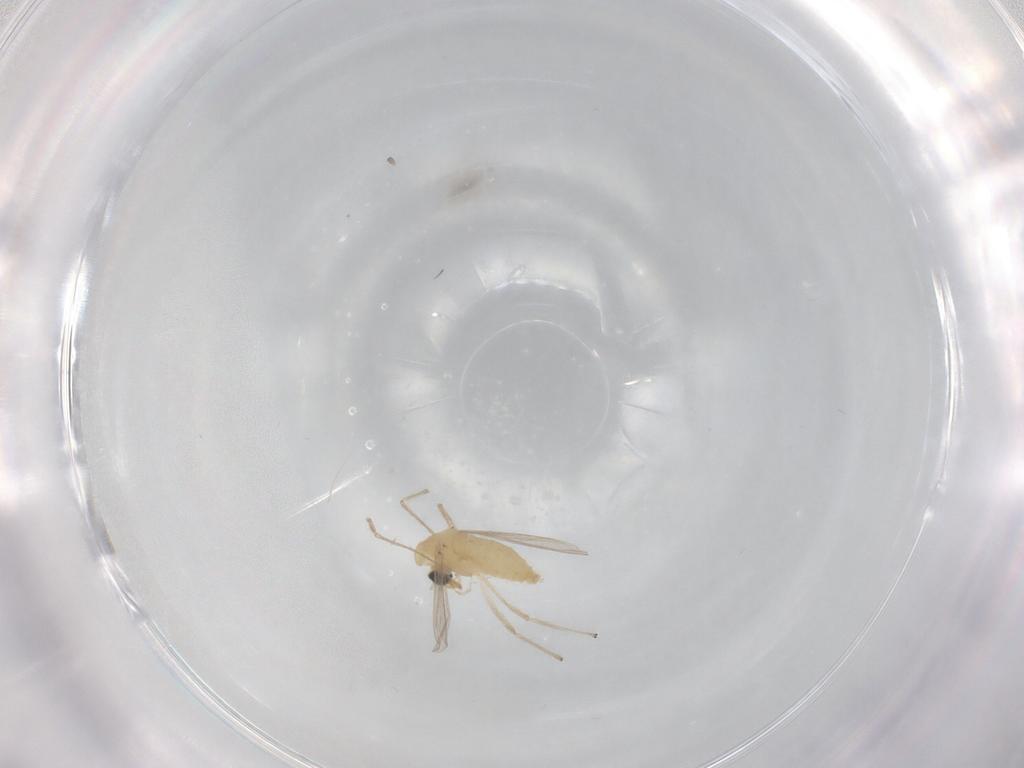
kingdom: Animalia
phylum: Arthropoda
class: Insecta
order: Diptera
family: Chironomidae
